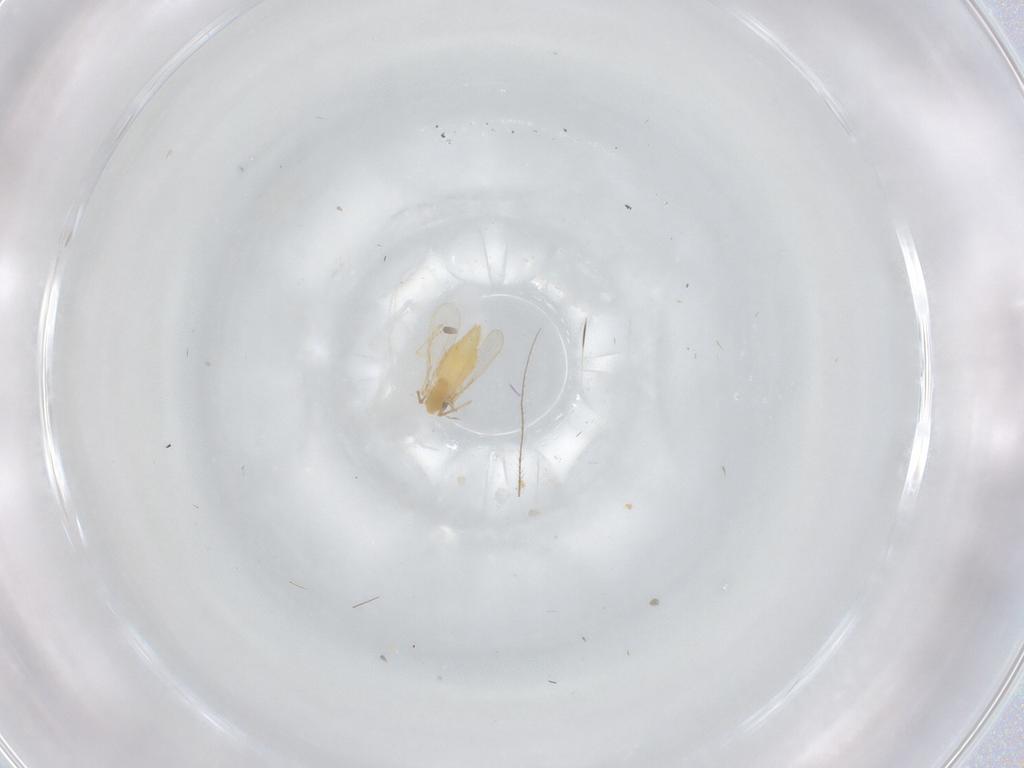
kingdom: Animalia
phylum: Arthropoda
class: Insecta
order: Diptera
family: Chironomidae
